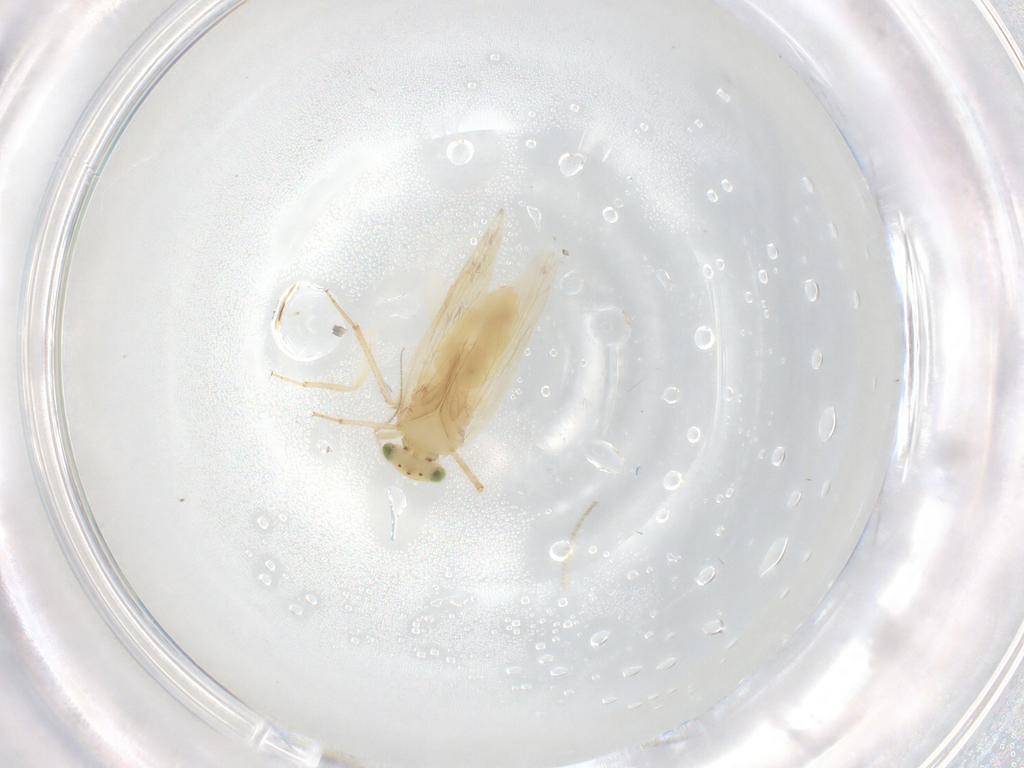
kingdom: Animalia
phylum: Arthropoda
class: Insecta
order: Psocodea
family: Lepidopsocidae
